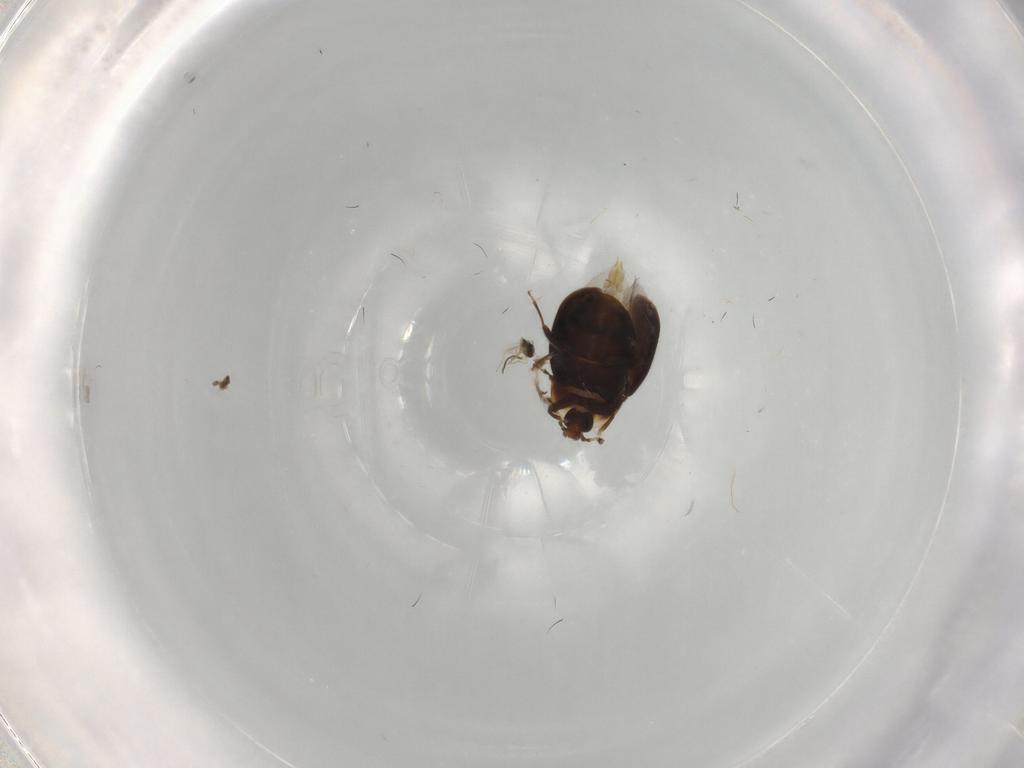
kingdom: Animalia
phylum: Arthropoda
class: Insecta
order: Coleoptera
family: Corylophidae
